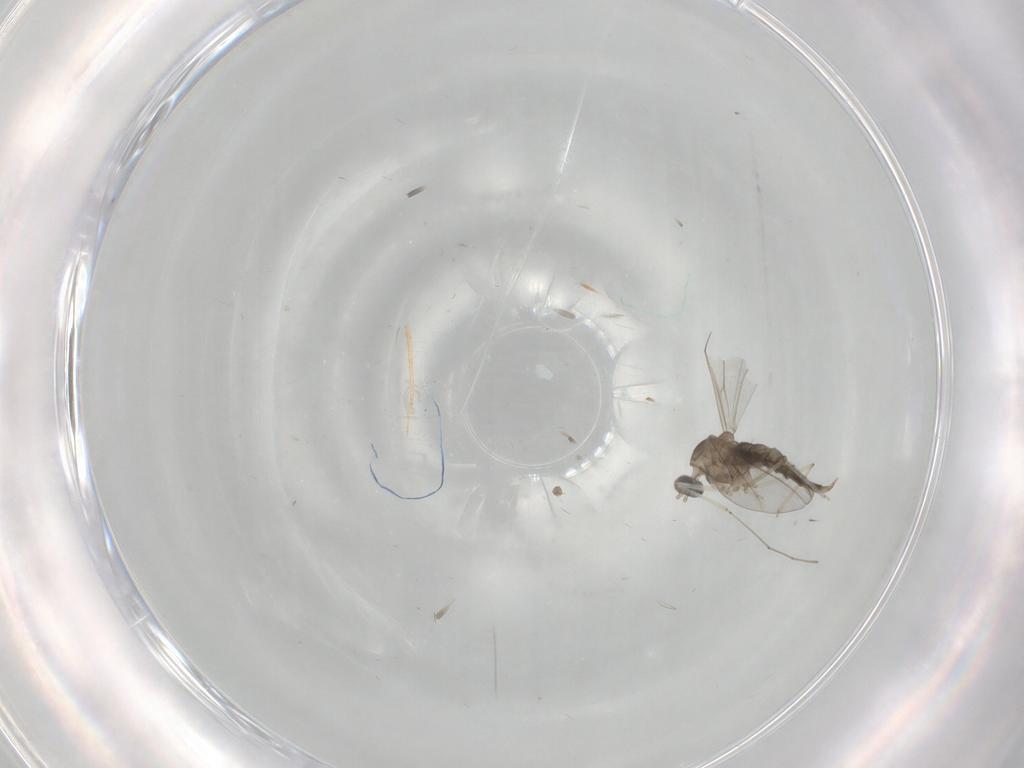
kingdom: Animalia
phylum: Arthropoda
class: Insecta
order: Diptera
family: Cecidomyiidae
